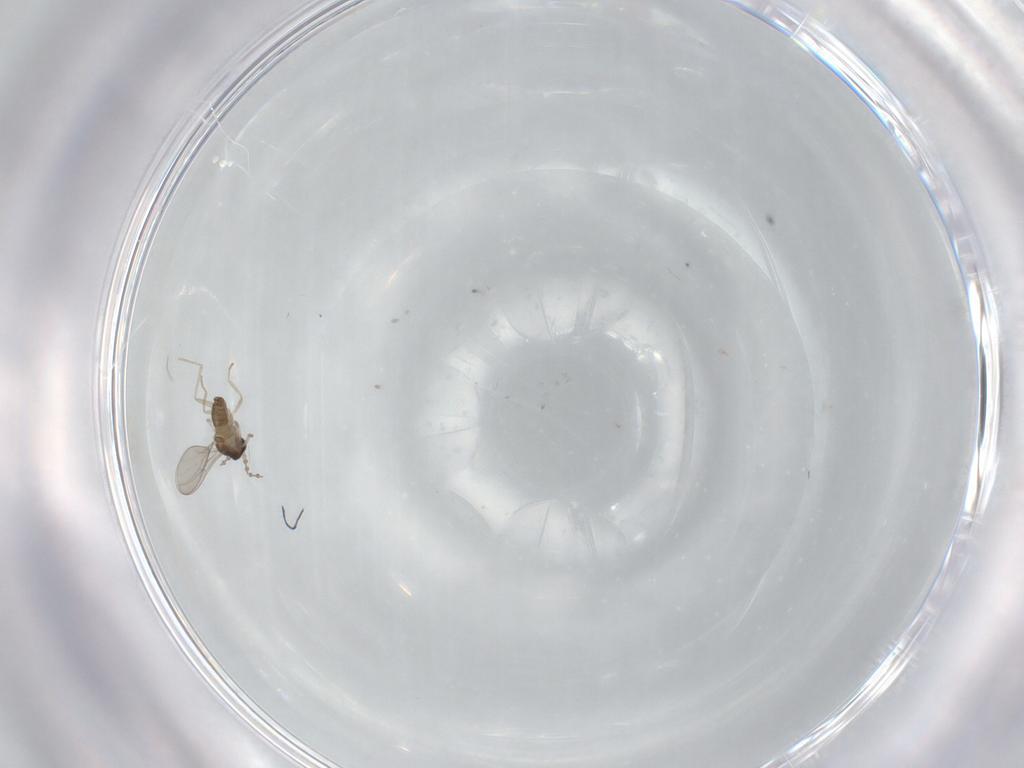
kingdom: Animalia
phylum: Arthropoda
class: Insecta
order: Diptera
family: Cecidomyiidae
